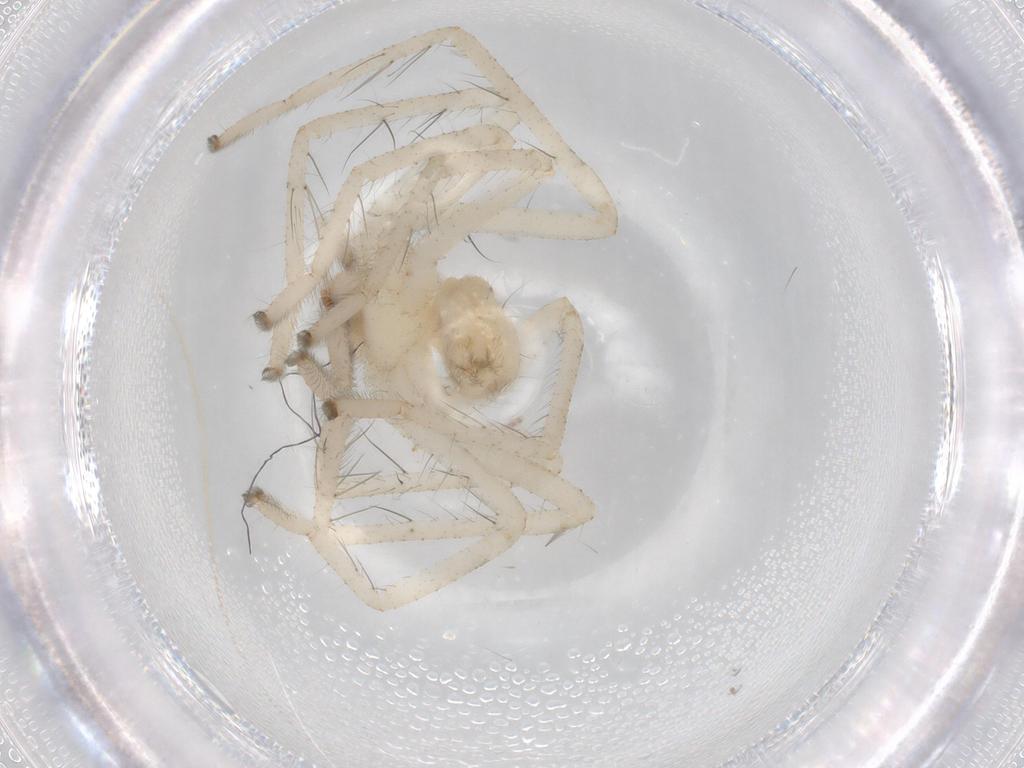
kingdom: Animalia
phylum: Arthropoda
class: Arachnida
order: Araneae
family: Sparassidae
